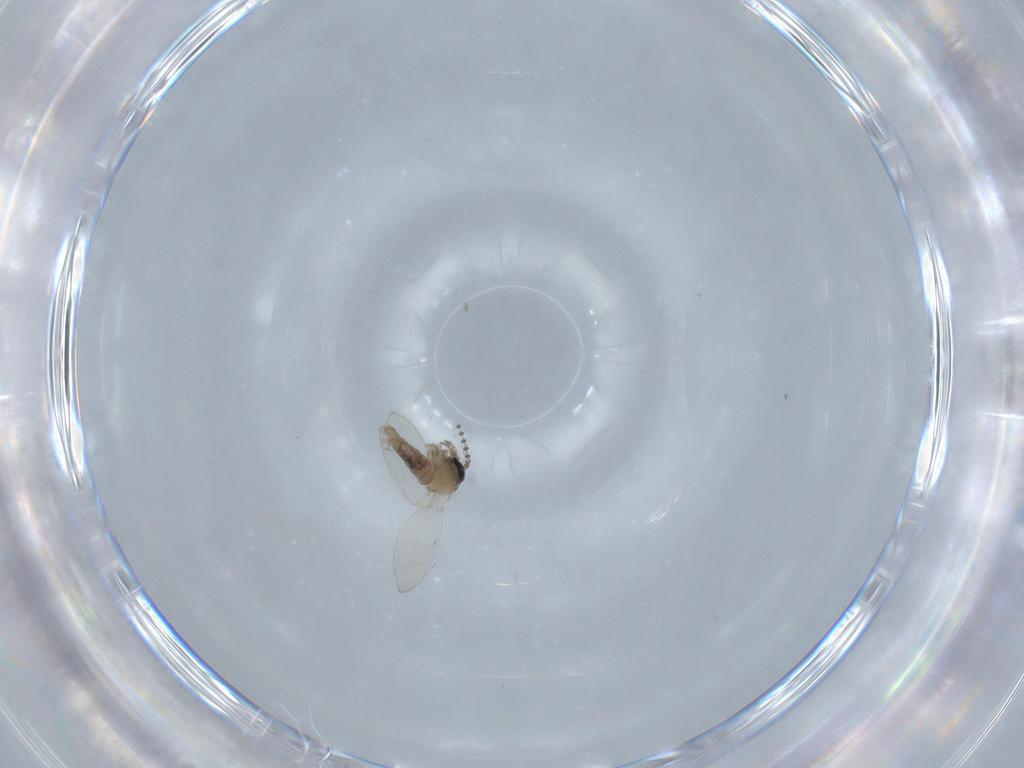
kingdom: Animalia
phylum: Arthropoda
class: Insecta
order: Diptera
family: Psychodidae
